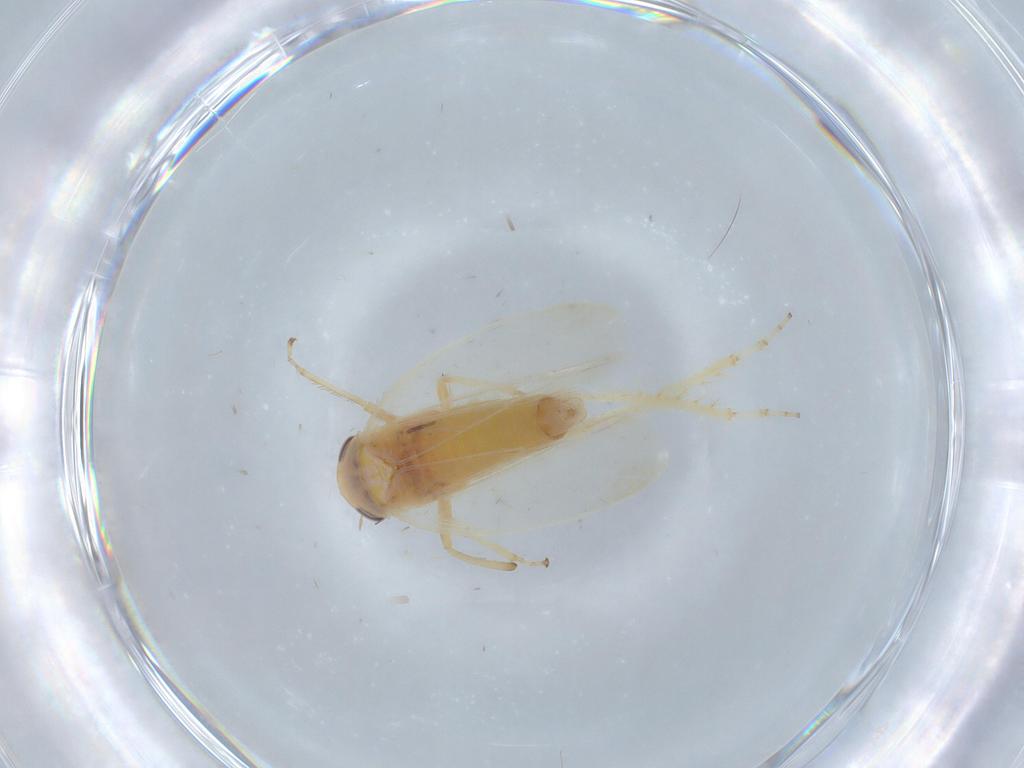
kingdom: Animalia
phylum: Arthropoda
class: Insecta
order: Hemiptera
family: Cicadellidae
